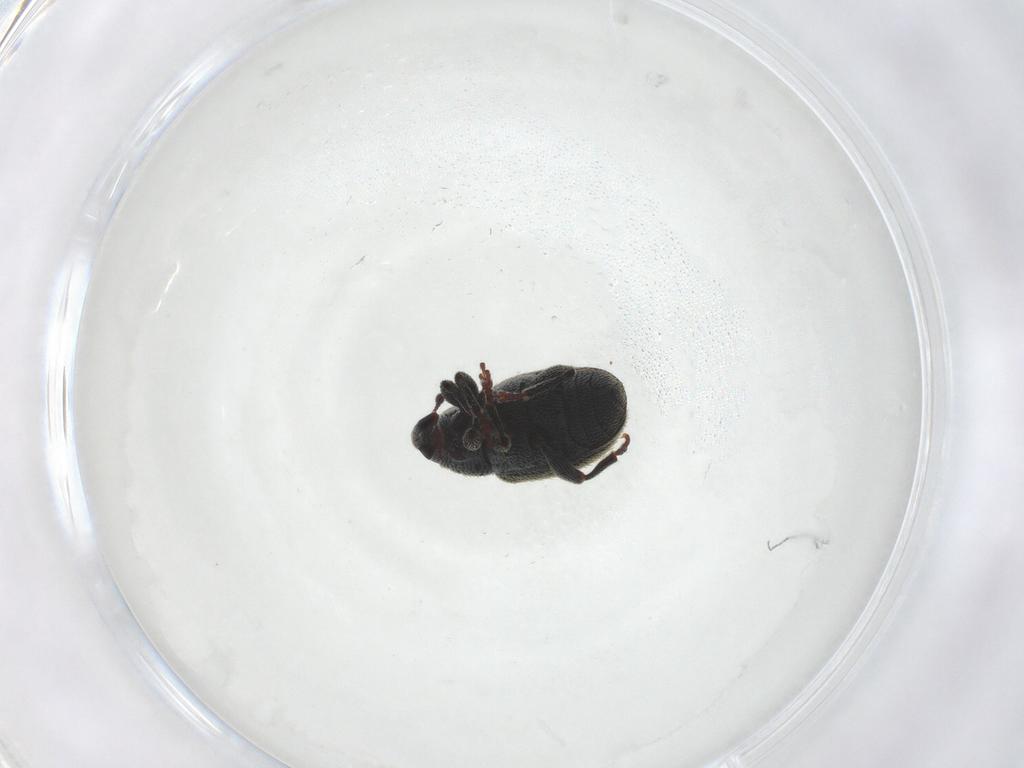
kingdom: Animalia
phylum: Arthropoda
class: Insecta
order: Coleoptera
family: Curculionidae
